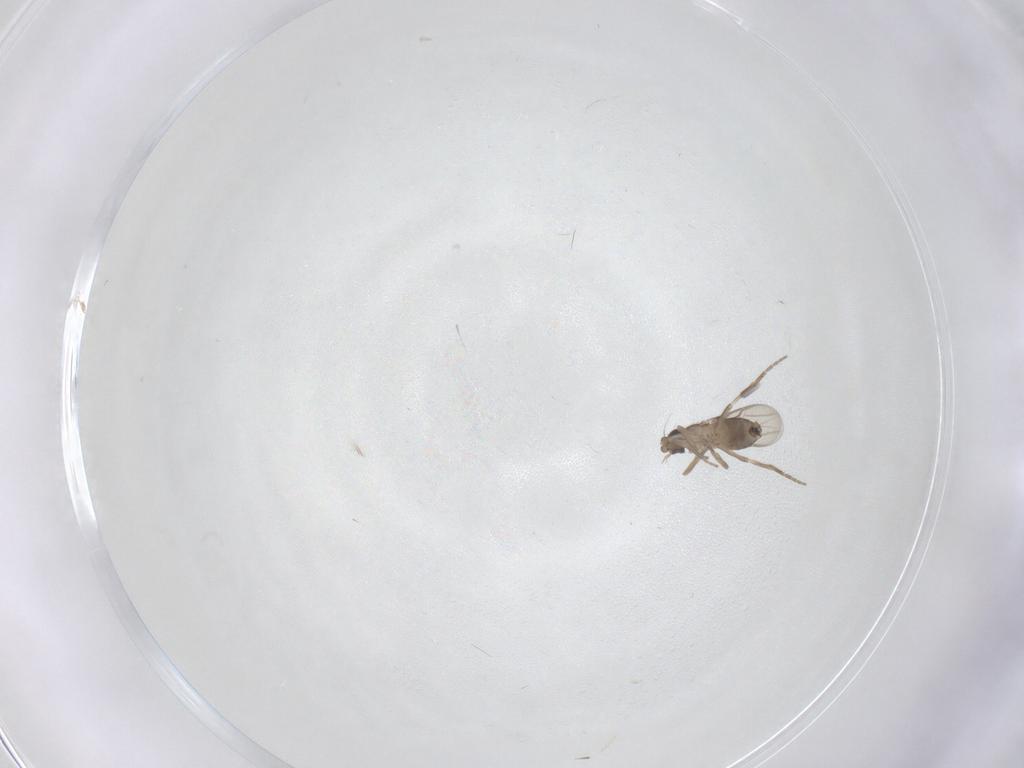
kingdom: Animalia
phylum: Arthropoda
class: Insecta
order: Diptera
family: Phoridae
